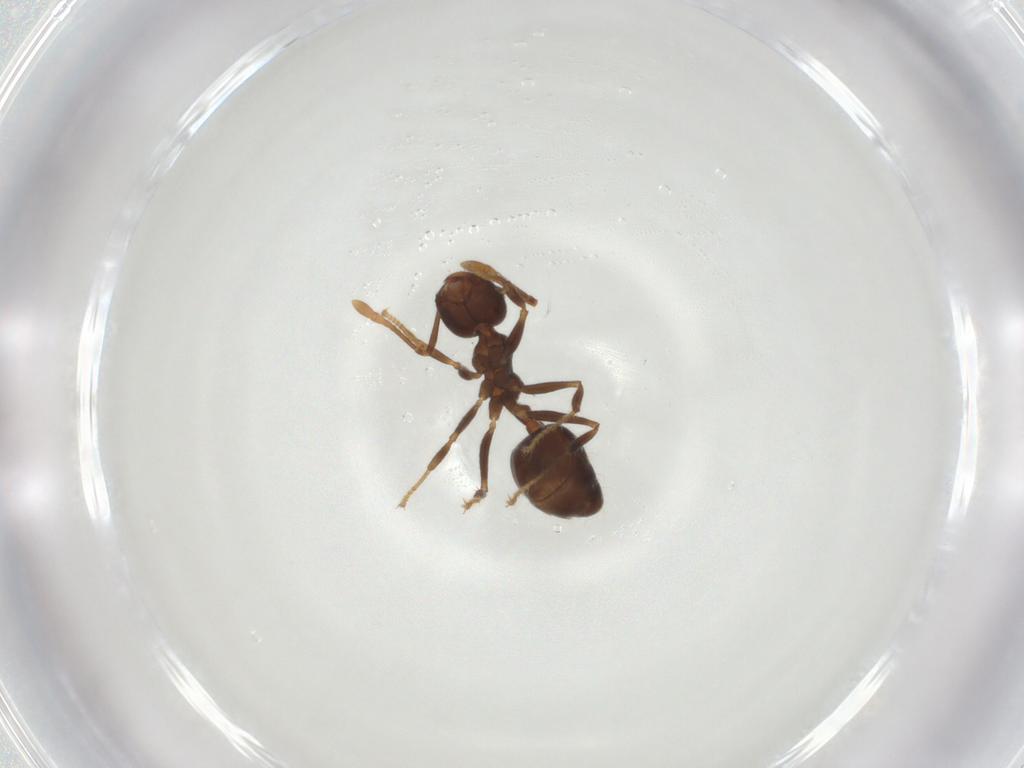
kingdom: Animalia
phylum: Arthropoda
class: Insecta
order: Hymenoptera
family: Formicidae
